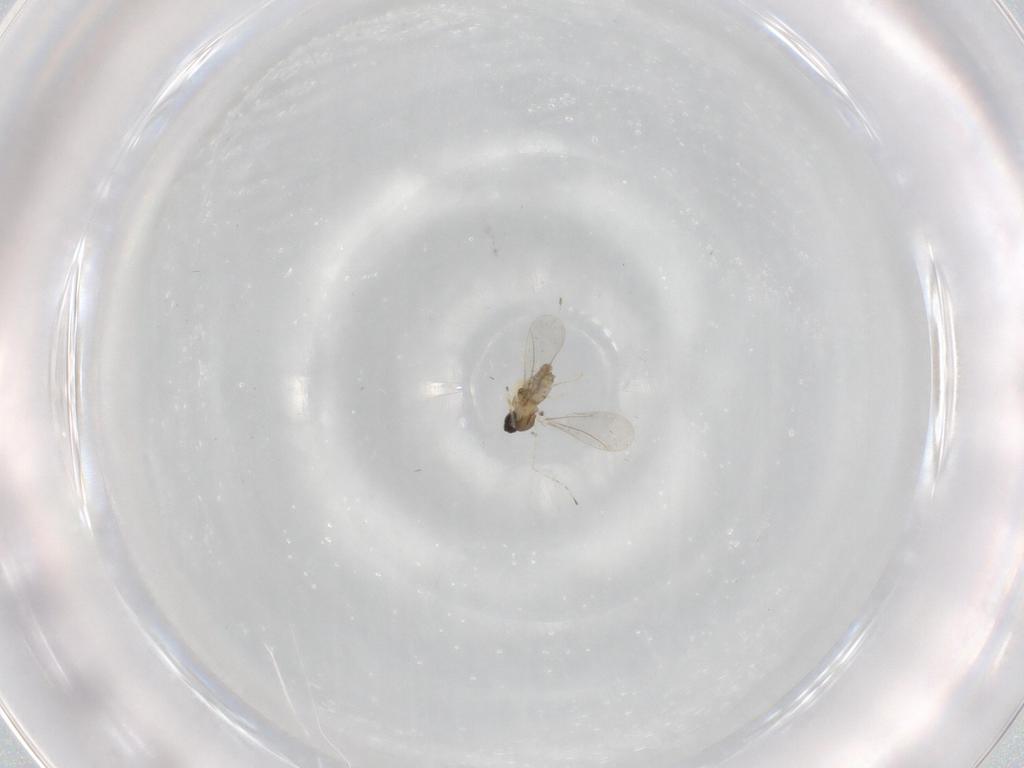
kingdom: Animalia
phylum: Arthropoda
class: Insecta
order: Diptera
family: Cecidomyiidae
